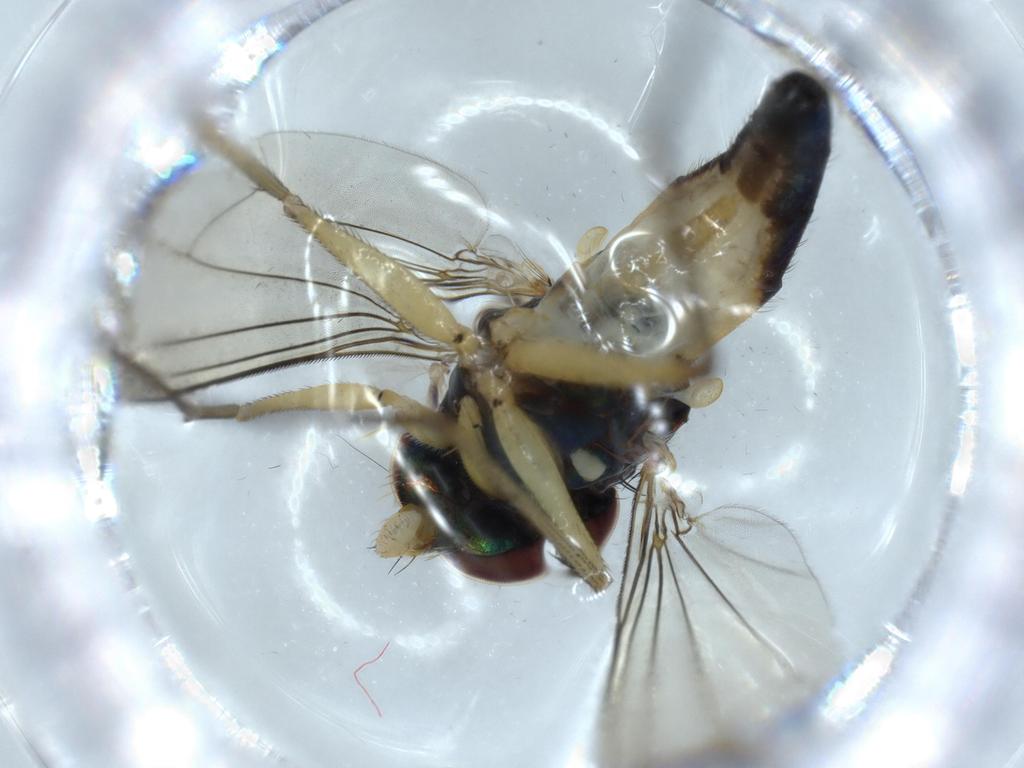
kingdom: Animalia
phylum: Arthropoda
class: Insecta
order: Diptera
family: Dolichopodidae
